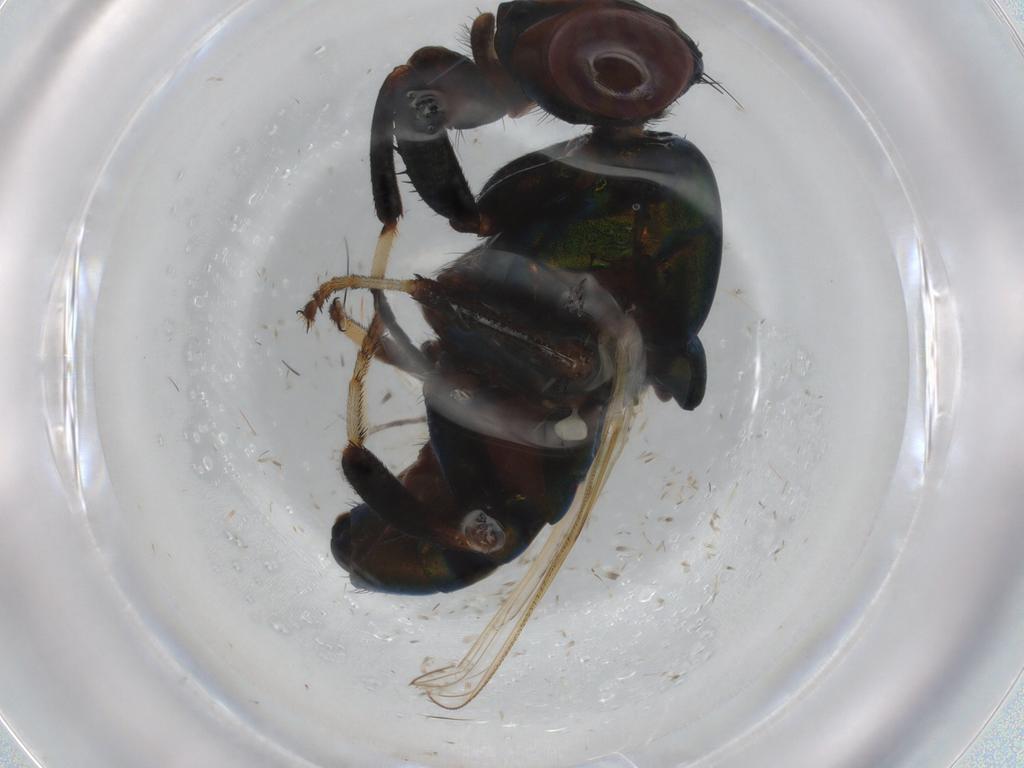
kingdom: Animalia
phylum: Arthropoda
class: Insecta
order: Diptera
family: Ulidiidae
